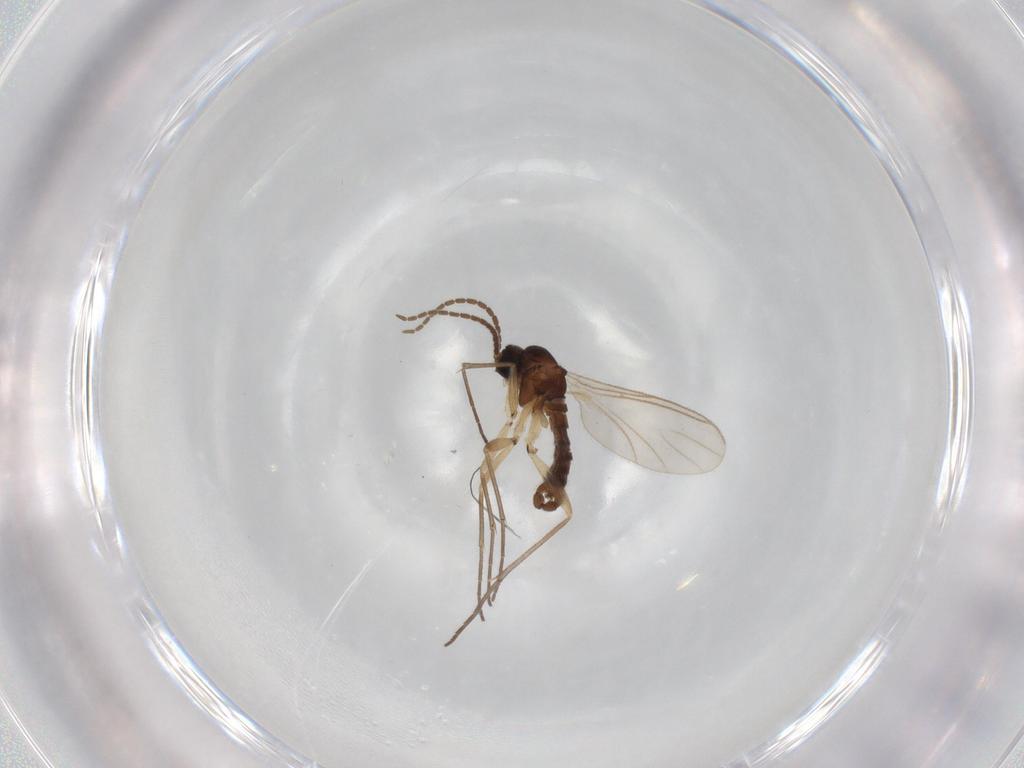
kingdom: Animalia
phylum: Arthropoda
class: Insecta
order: Diptera
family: Sciaridae
